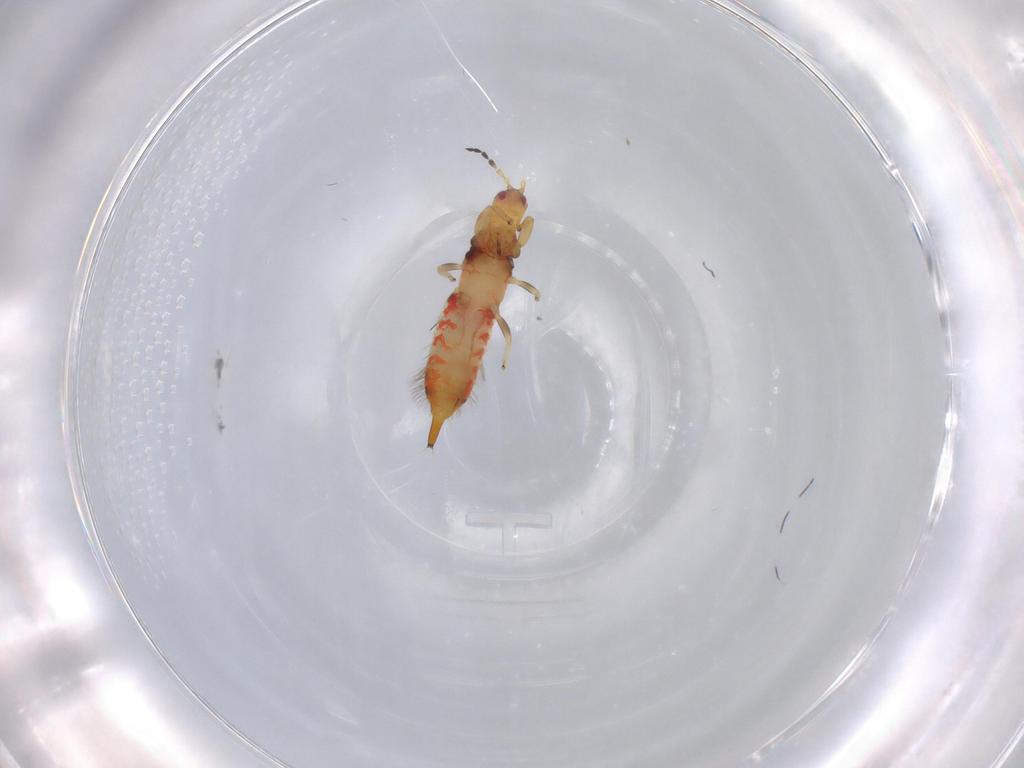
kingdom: Animalia
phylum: Arthropoda
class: Insecta
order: Thysanoptera
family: Phlaeothripidae
